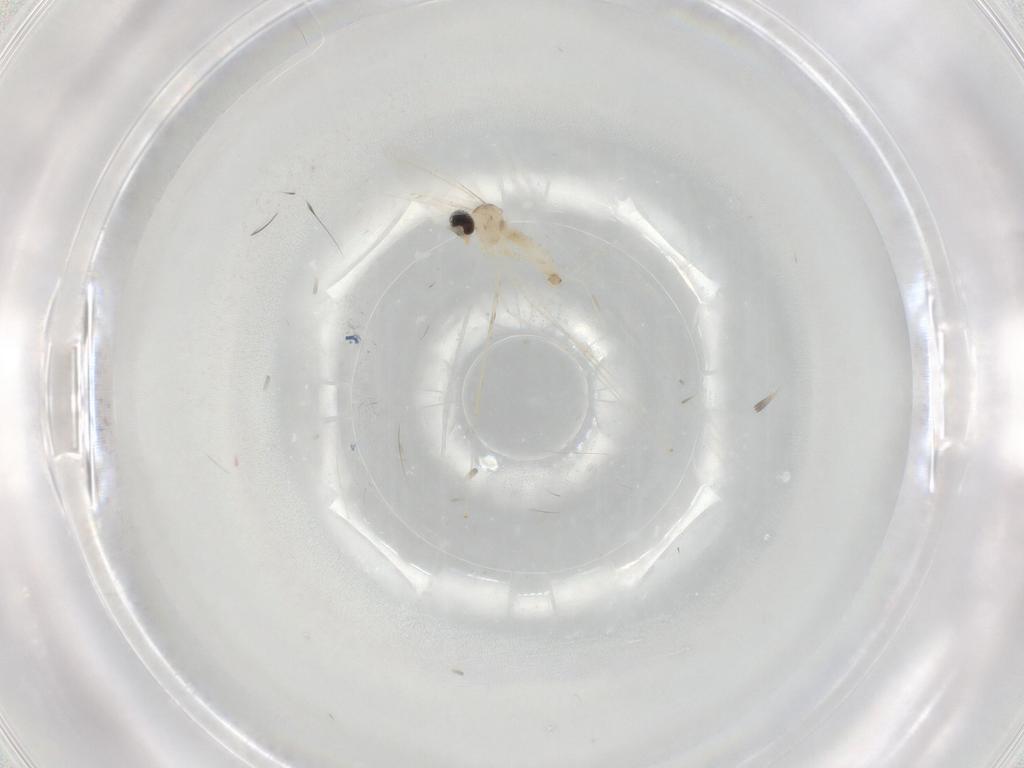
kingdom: Animalia
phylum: Arthropoda
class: Insecta
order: Diptera
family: Cecidomyiidae
